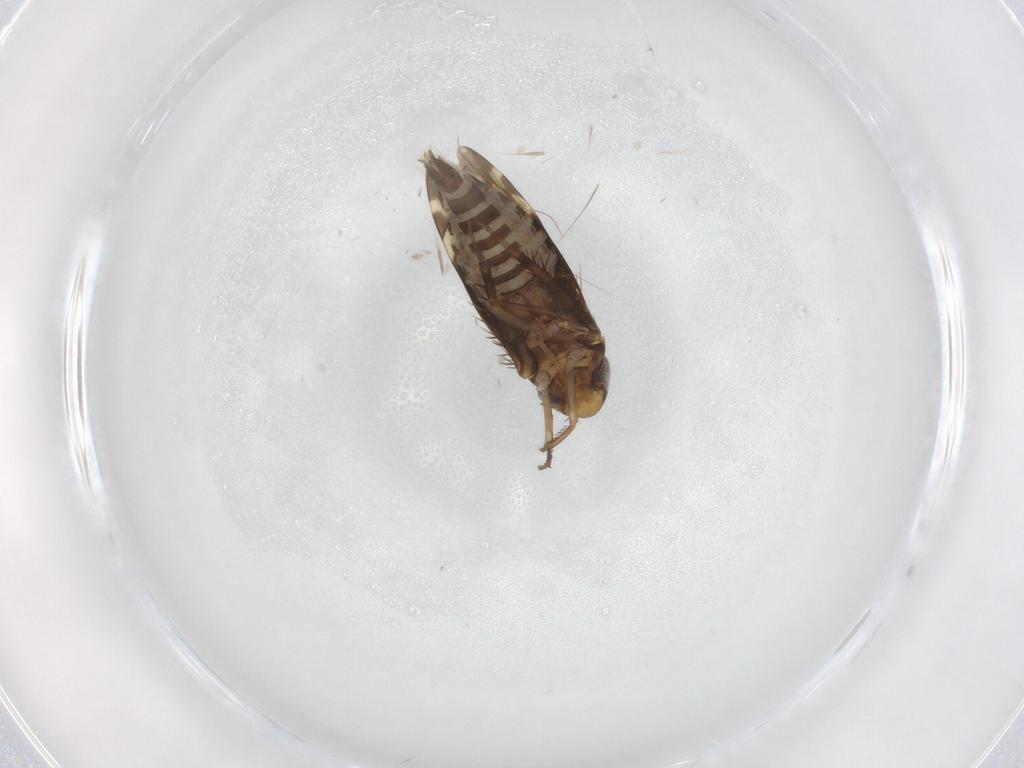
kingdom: Animalia
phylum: Arthropoda
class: Insecta
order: Hemiptera
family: Cicadellidae
